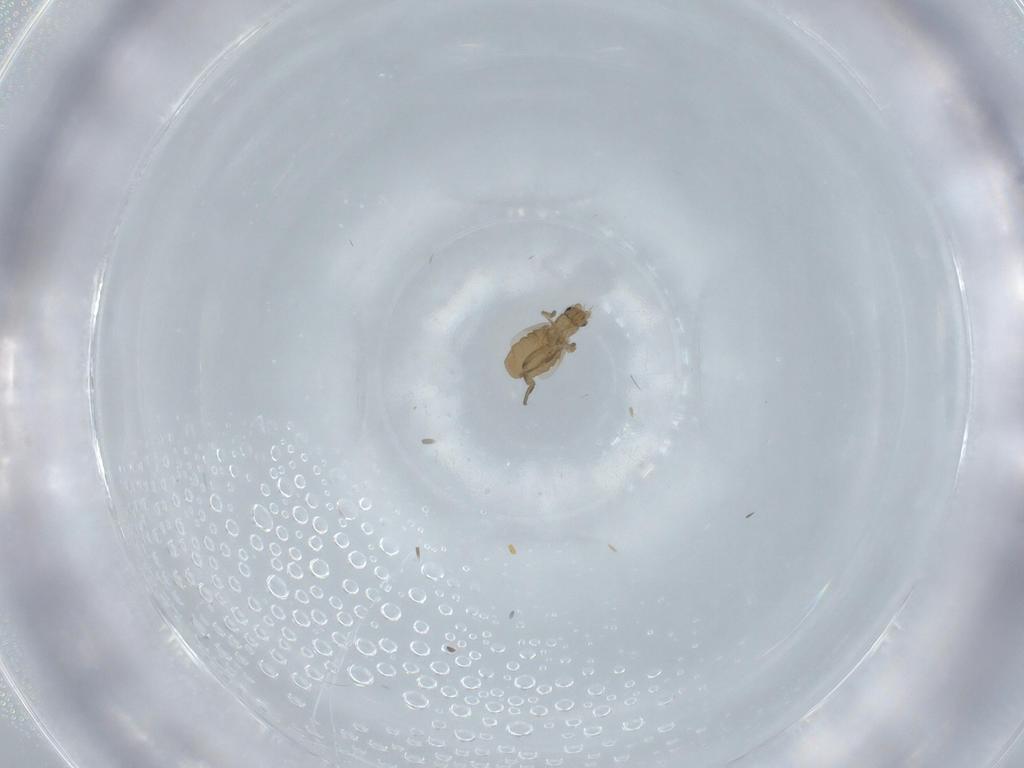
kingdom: Animalia
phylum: Arthropoda
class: Insecta
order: Diptera
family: Phoridae
